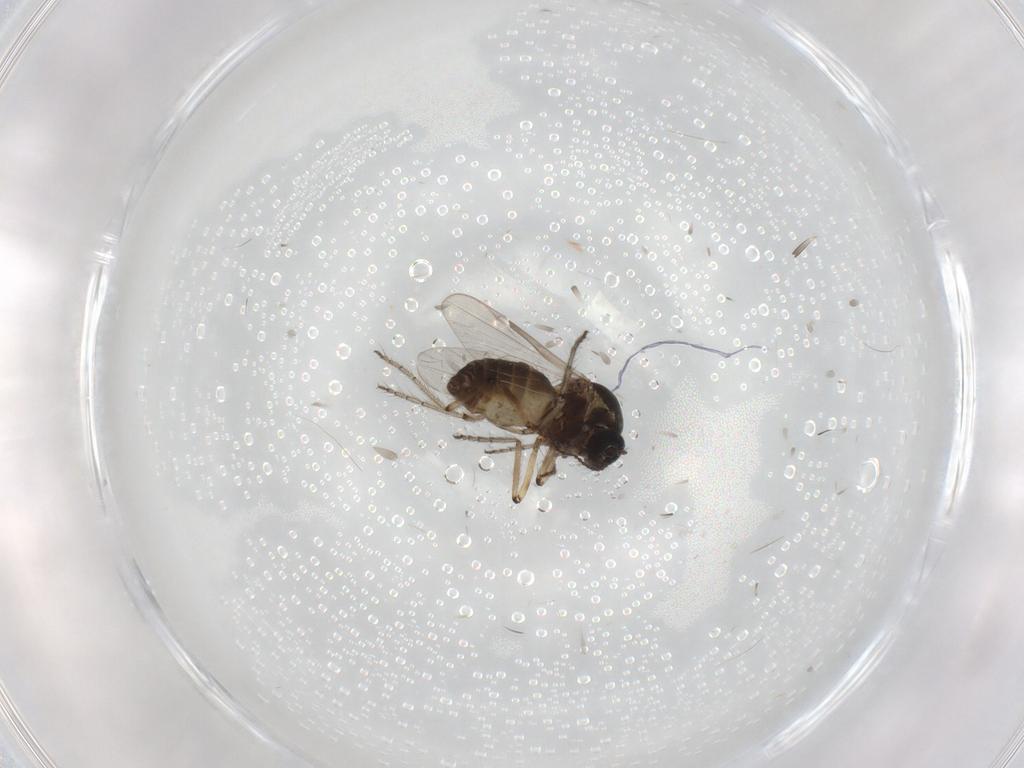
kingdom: Animalia
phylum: Arthropoda
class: Insecta
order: Diptera
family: Ceratopogonidae
